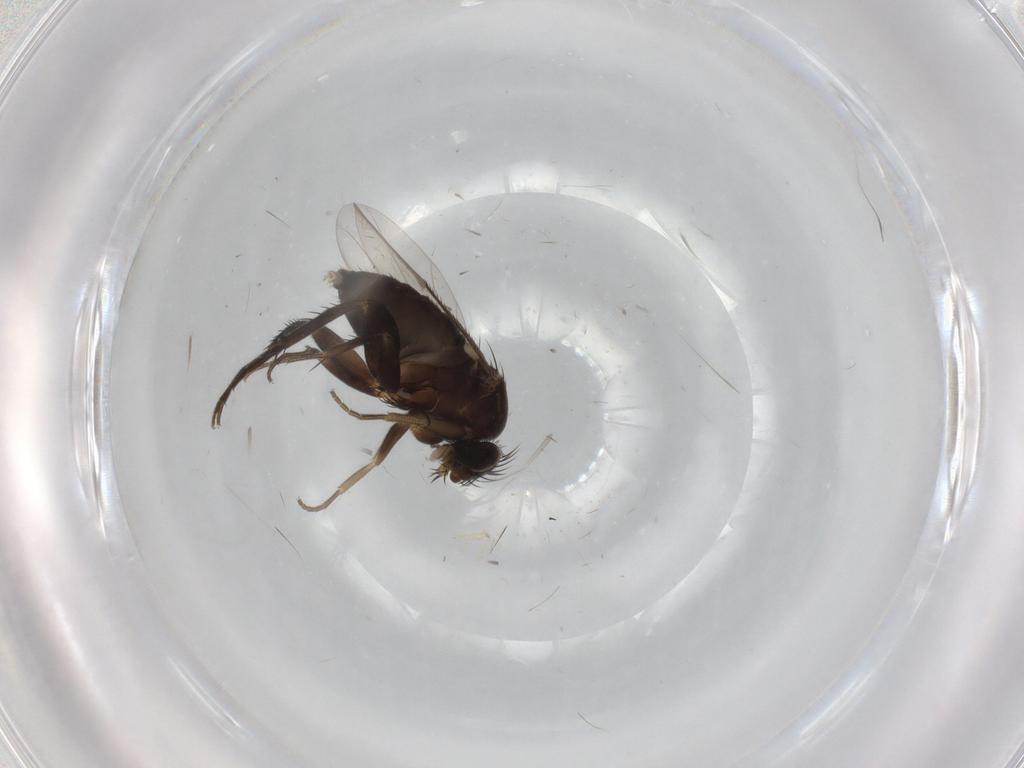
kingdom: Animalia
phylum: Arthropoda
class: Insecta
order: Diptera
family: Phoridae
